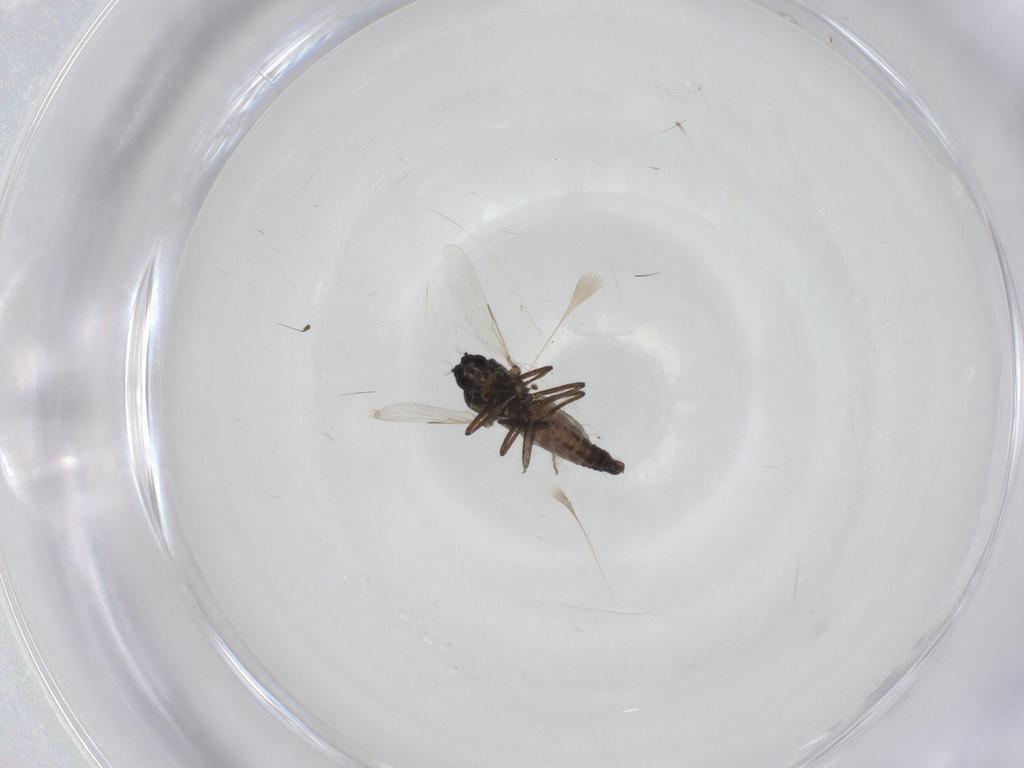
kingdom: Animalia
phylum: Arthropoda
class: Insecta
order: Diptera
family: Ceratopogonidae
